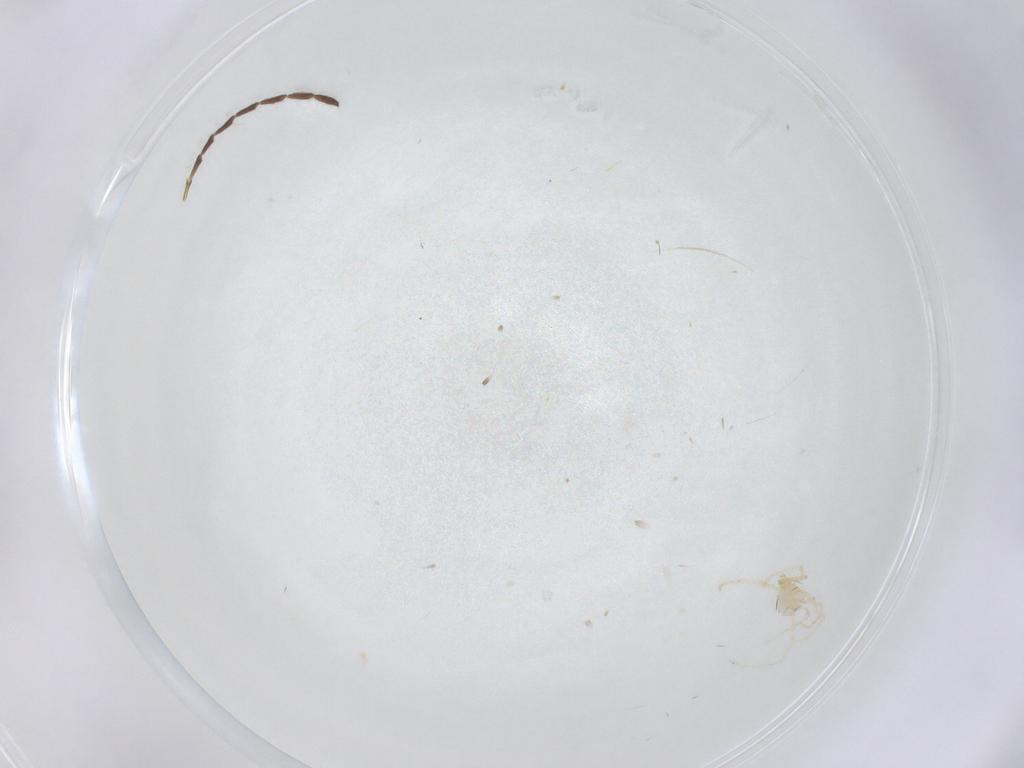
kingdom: Animalia
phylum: Arthropoda
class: Arachnida
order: Trombidiformes
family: Erythraeidae
